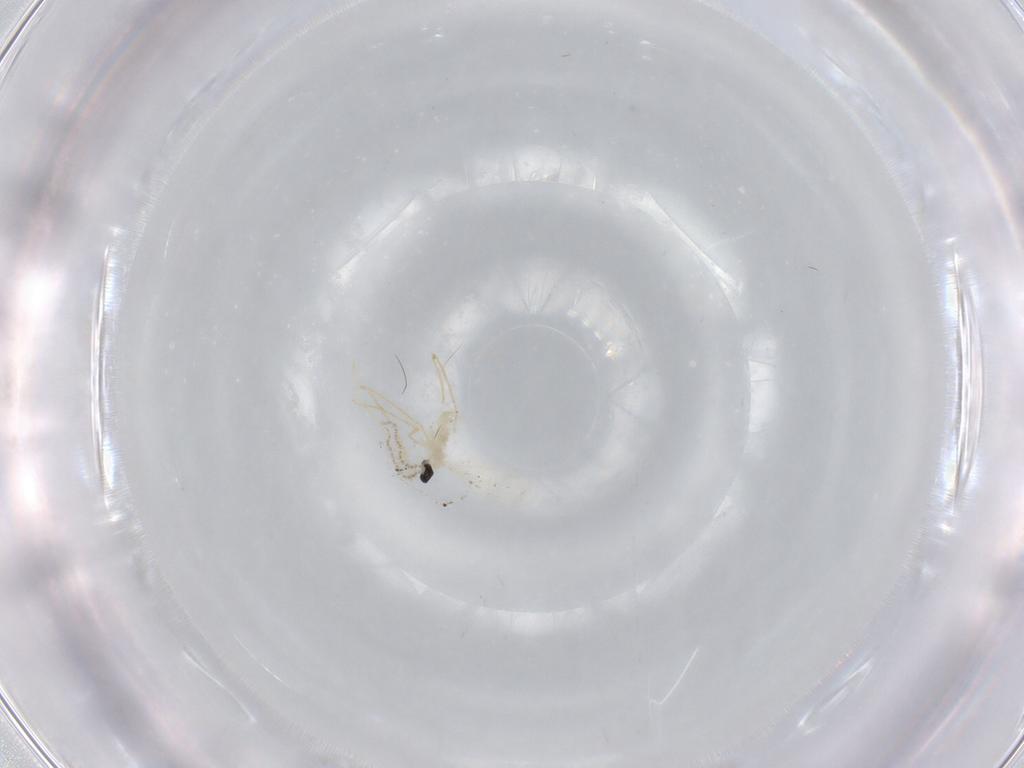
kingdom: Animalia
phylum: Arthropoda
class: Insecta
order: Diptera
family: Cecidomyiidae
